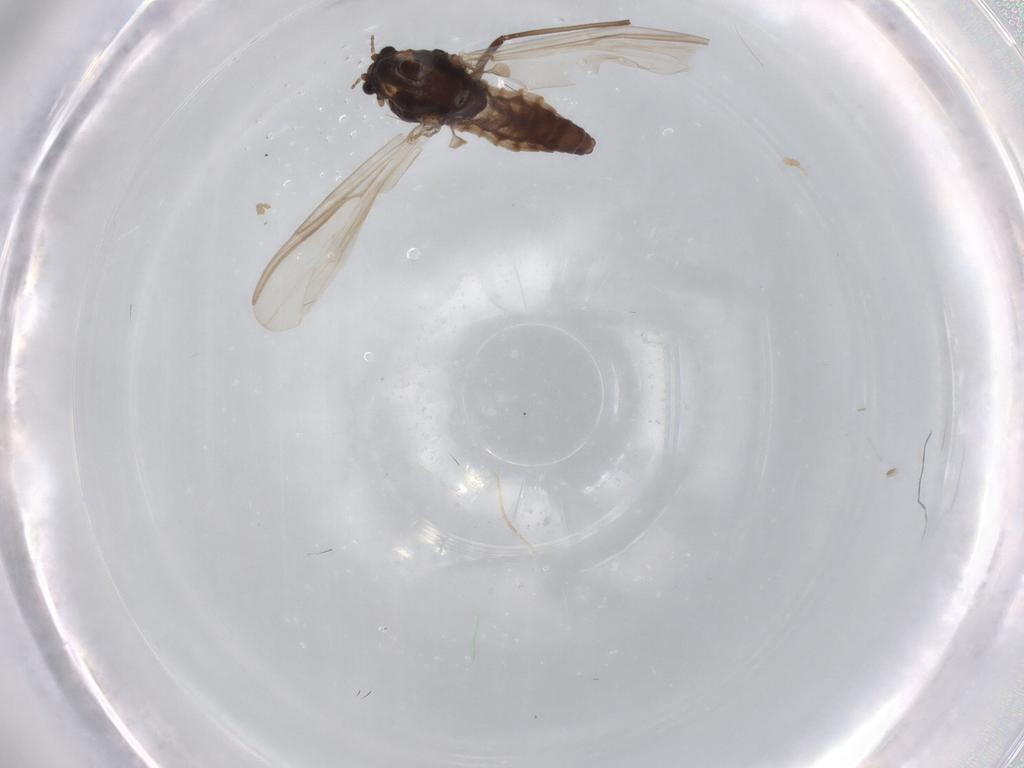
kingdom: Animalia
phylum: Arthropoda
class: Insecta
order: Diptera
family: Chironomidae
